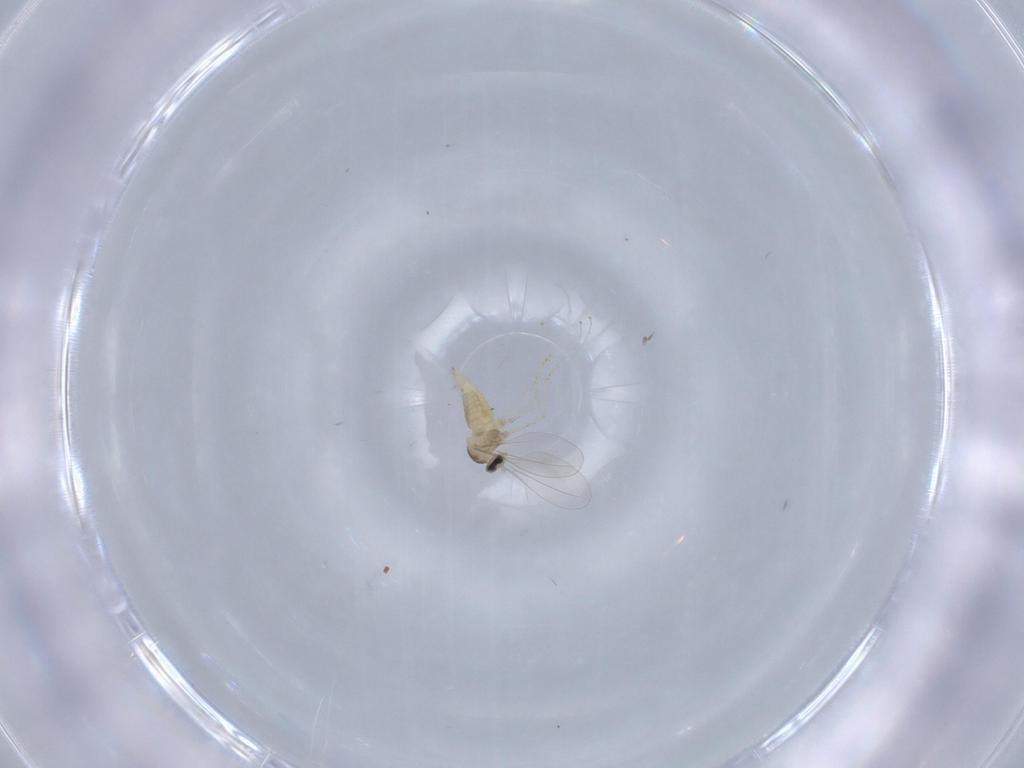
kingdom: Animalia
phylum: Arthropoda
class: Insecta
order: Diptera
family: Cecidomyiidae
